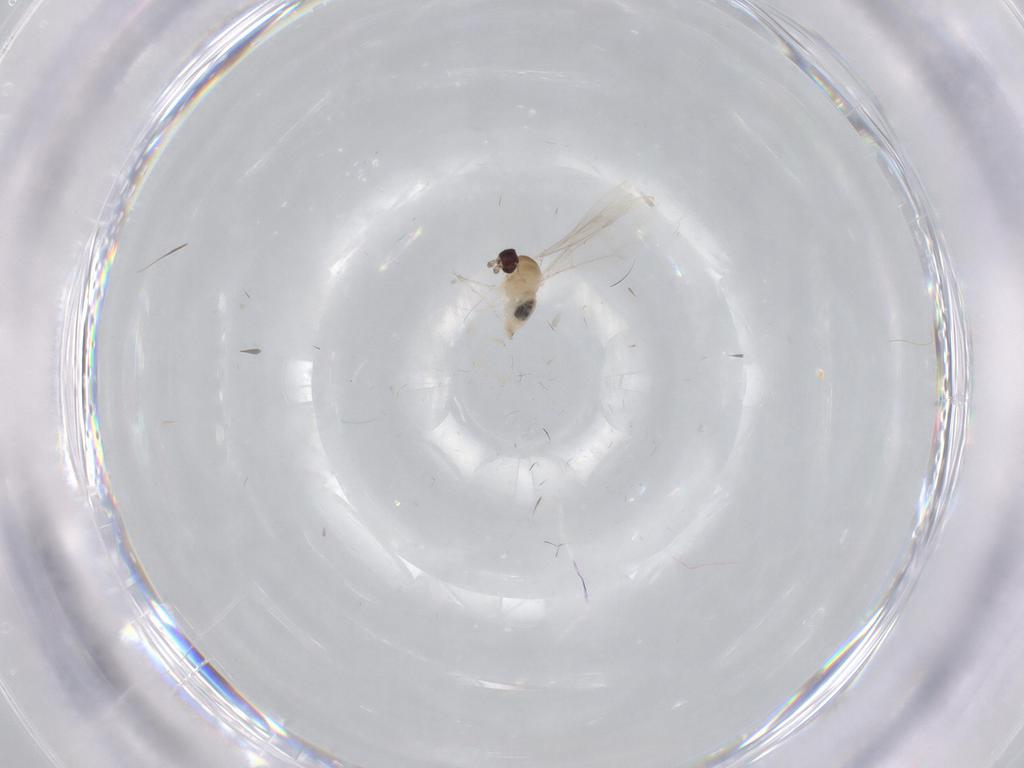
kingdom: Animalia
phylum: Arthropoda
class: Insecta
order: Diptera
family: Cecidomyiidae
